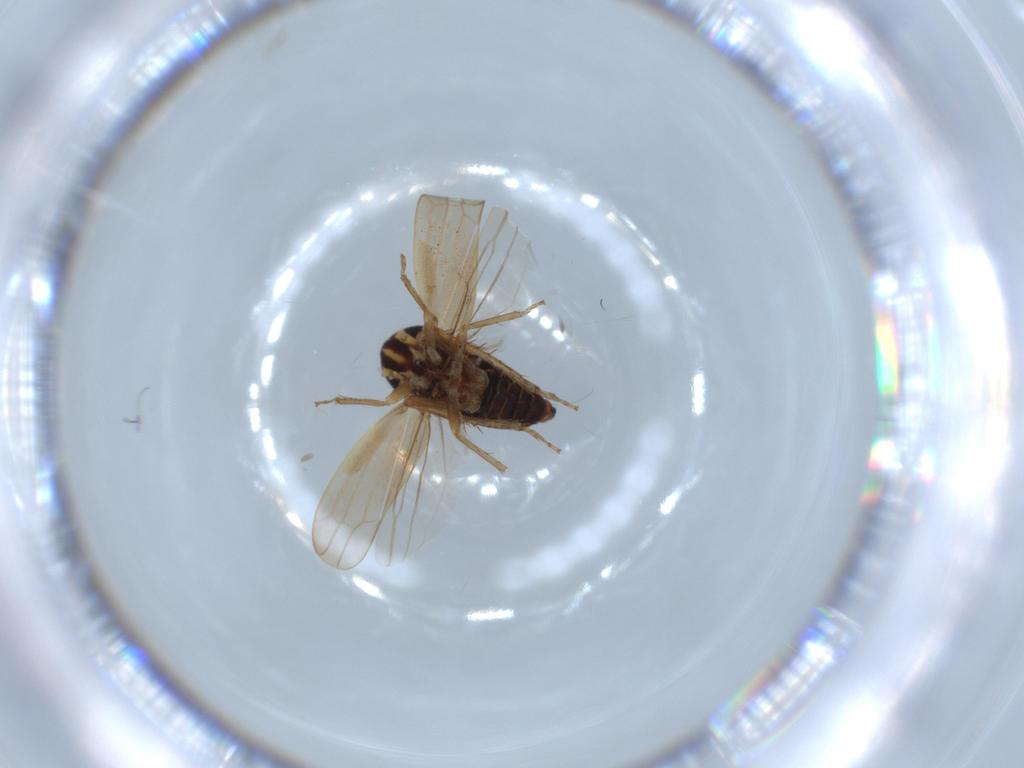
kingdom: Animalia
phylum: Arthropoda
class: Insecta
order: Hemiptera
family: Cicadellidae
